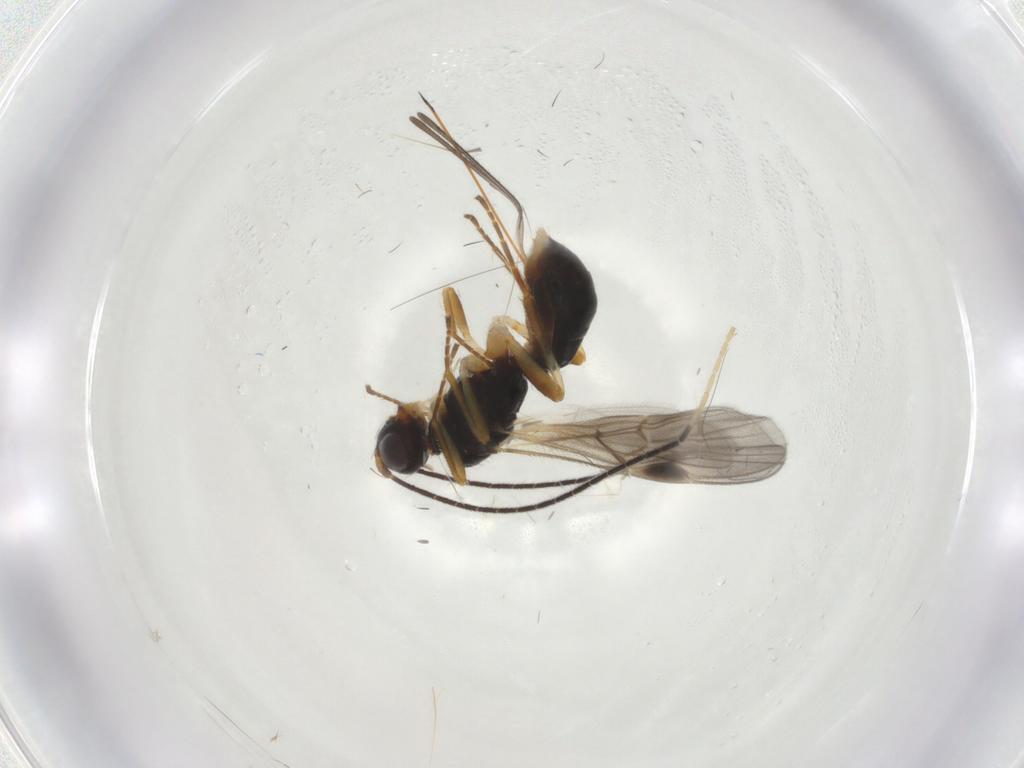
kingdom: Animalia
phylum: Arthropoda
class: Insecta
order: Hymenoptera
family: Braconidae
